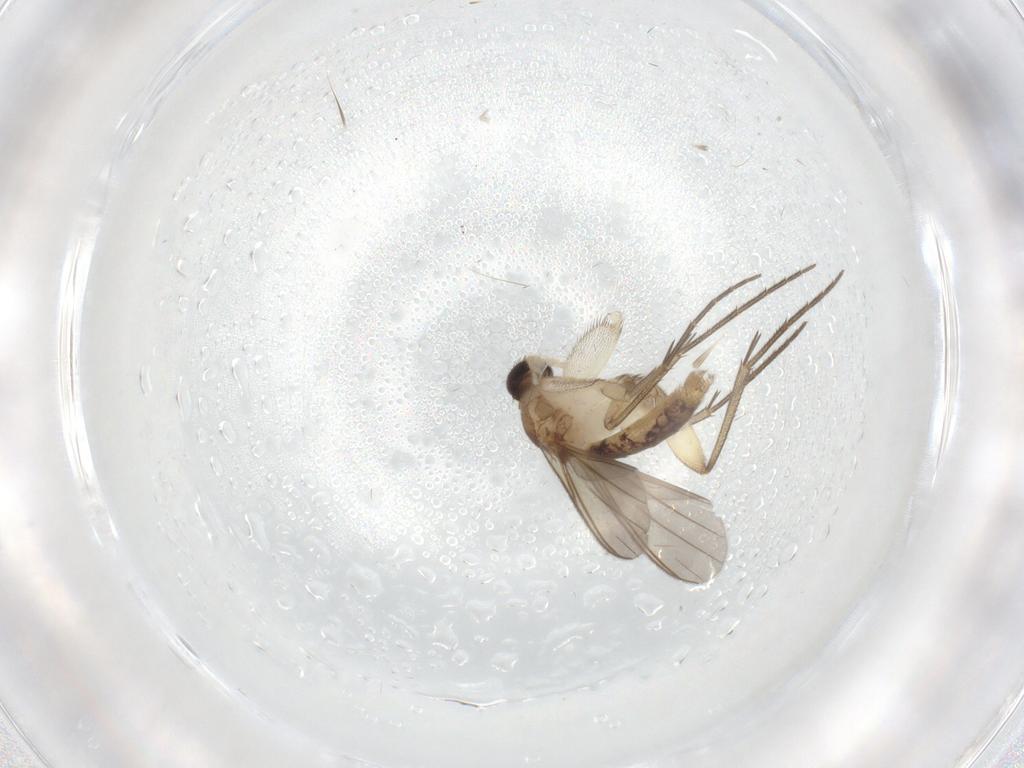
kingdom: Animalia
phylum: Arthropoda
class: Insecta
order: Diptera
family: Mycetophilidae
